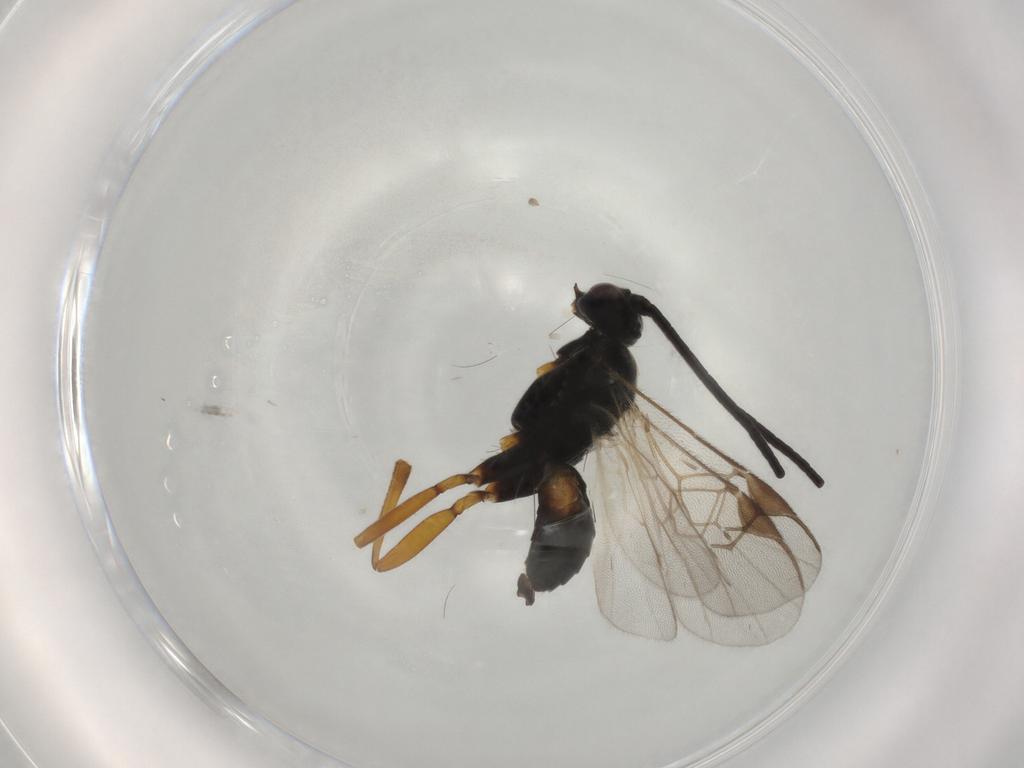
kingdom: Animalia
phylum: Arthropoda
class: Insecta
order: Hymenoptera
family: Braconidae
